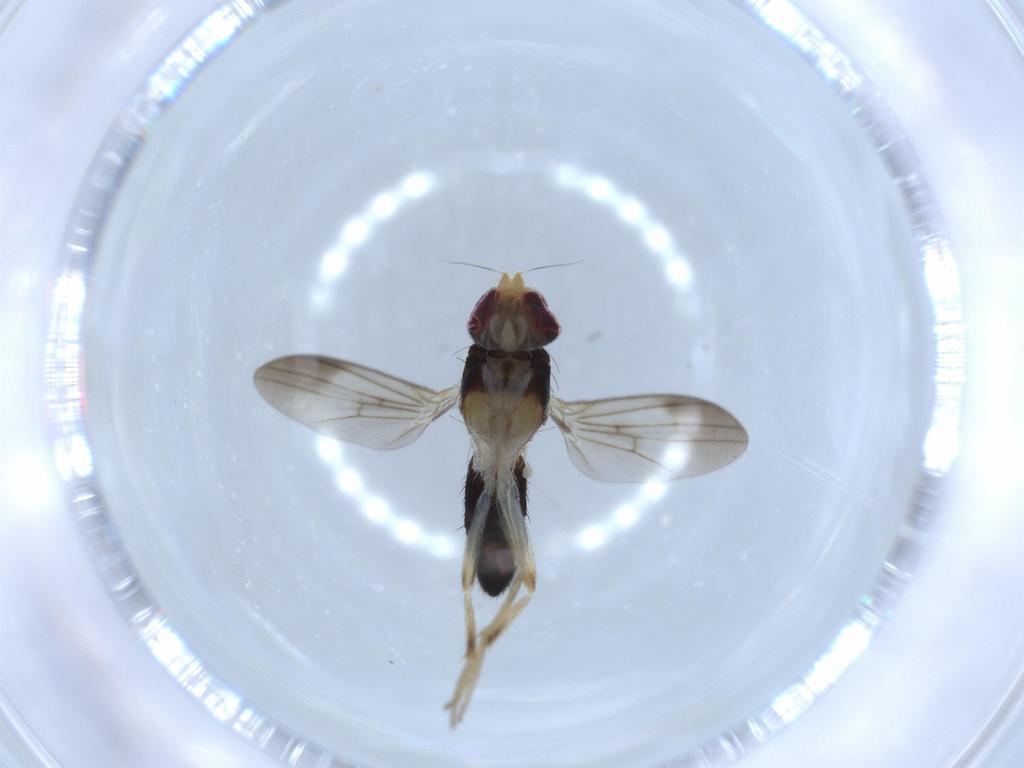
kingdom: Animalia
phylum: Arthropoda
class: Insecta
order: Diptera
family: Clusiidae
